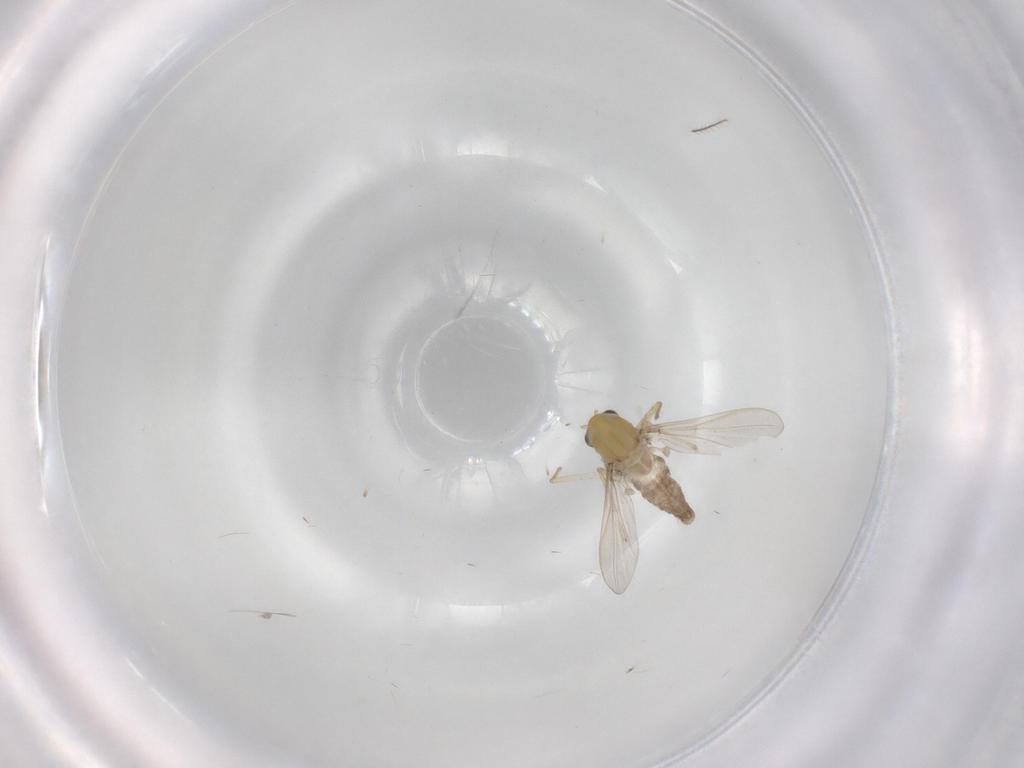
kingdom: Animalia
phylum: Arthropoda
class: Insecta
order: Diptera
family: Chironomidae
